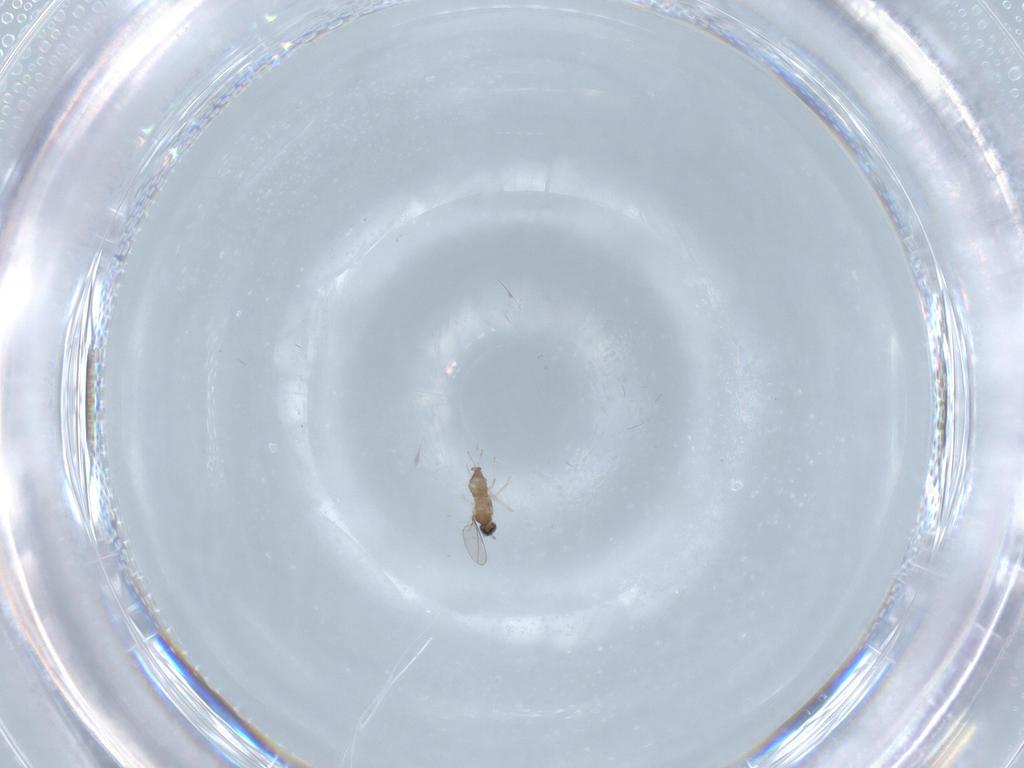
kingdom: Animalia
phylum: Arthropoda
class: Insecta
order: Diptera
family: Cecidomyiidae
